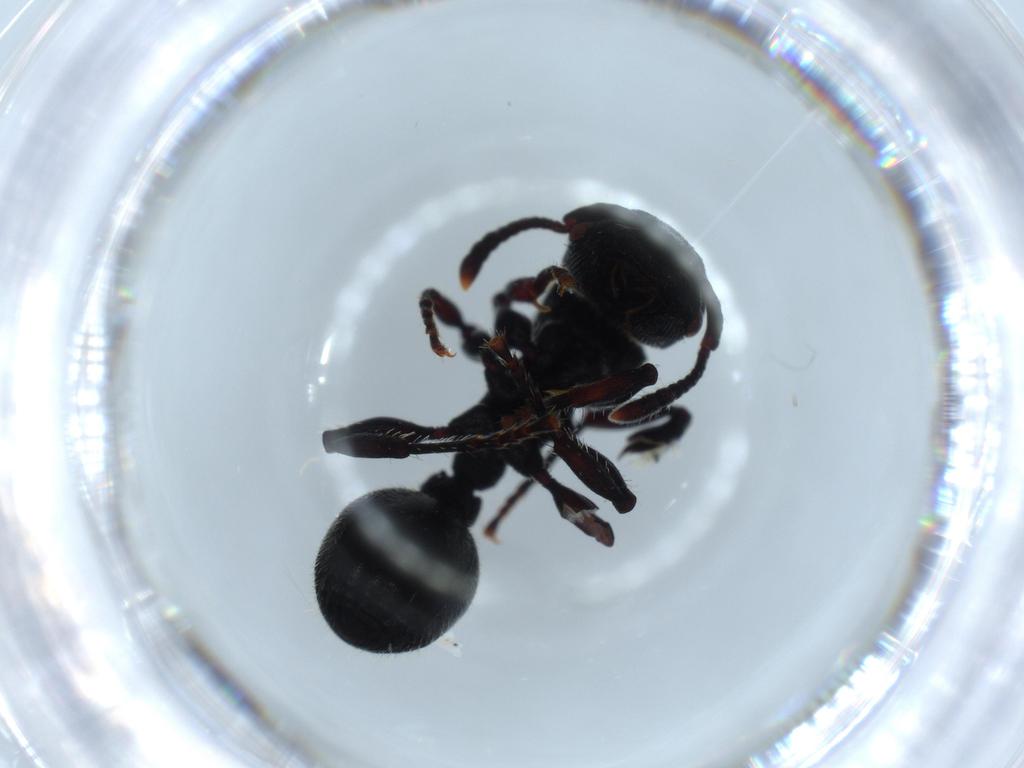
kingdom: Animalia
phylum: Arthropoda
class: Insecta
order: Hymenoptera
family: Formicidae
